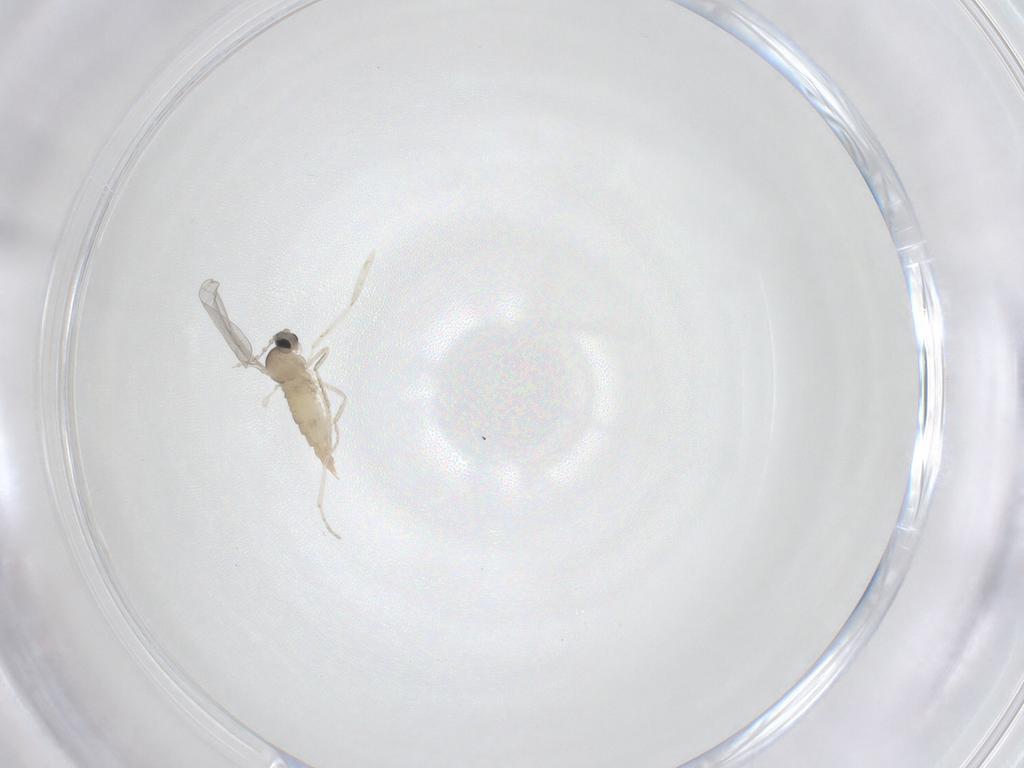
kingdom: Animalia
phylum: Arthropoda
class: Insecta
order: Diptera
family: Cecidomyiidae
